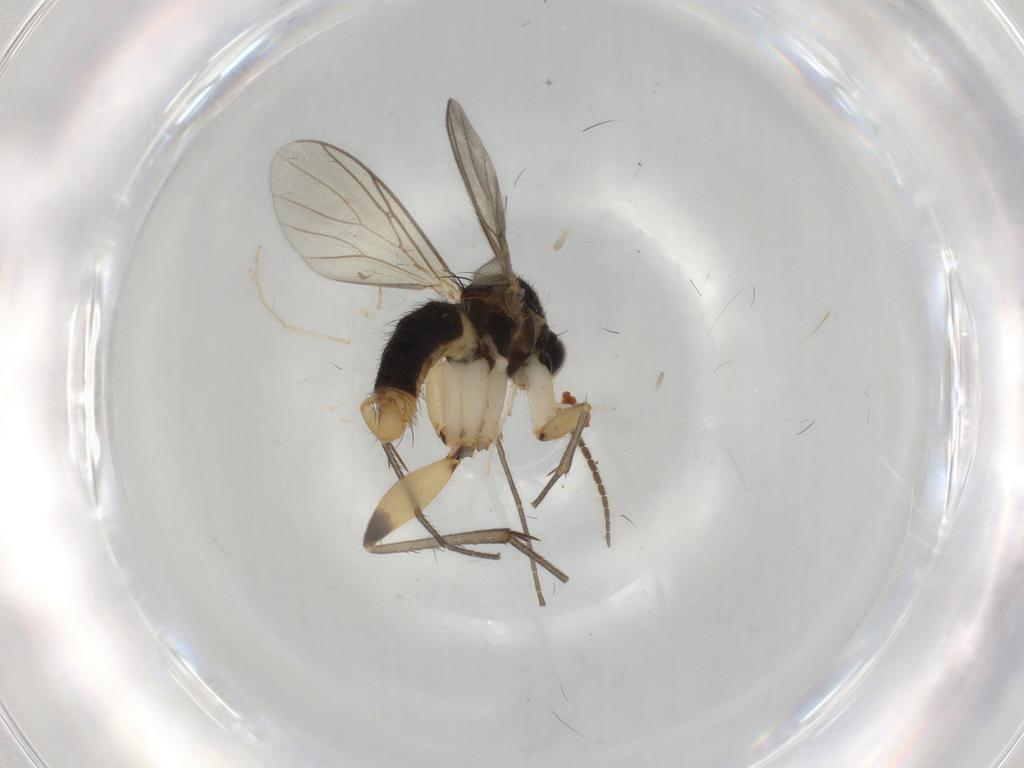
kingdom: Animalia
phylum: Arthropoda
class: Insecta
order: Diptera
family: Mycetophilidae
